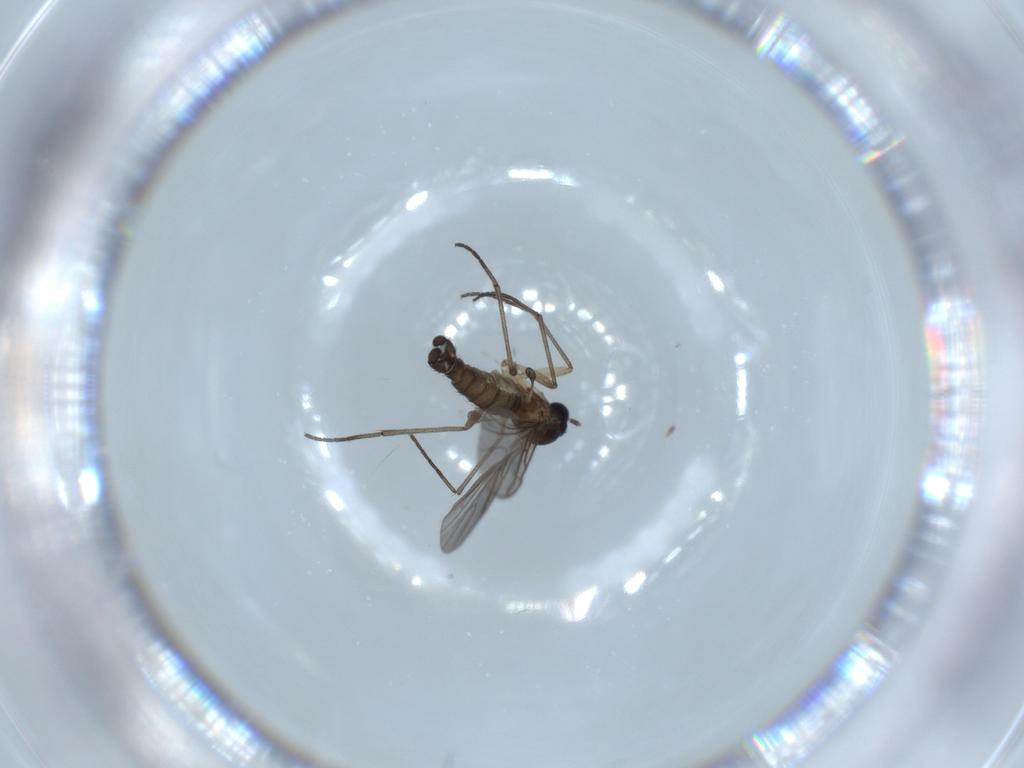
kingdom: Animalia
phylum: Arthropoda
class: Insecta
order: Diptera
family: Sciaridae
